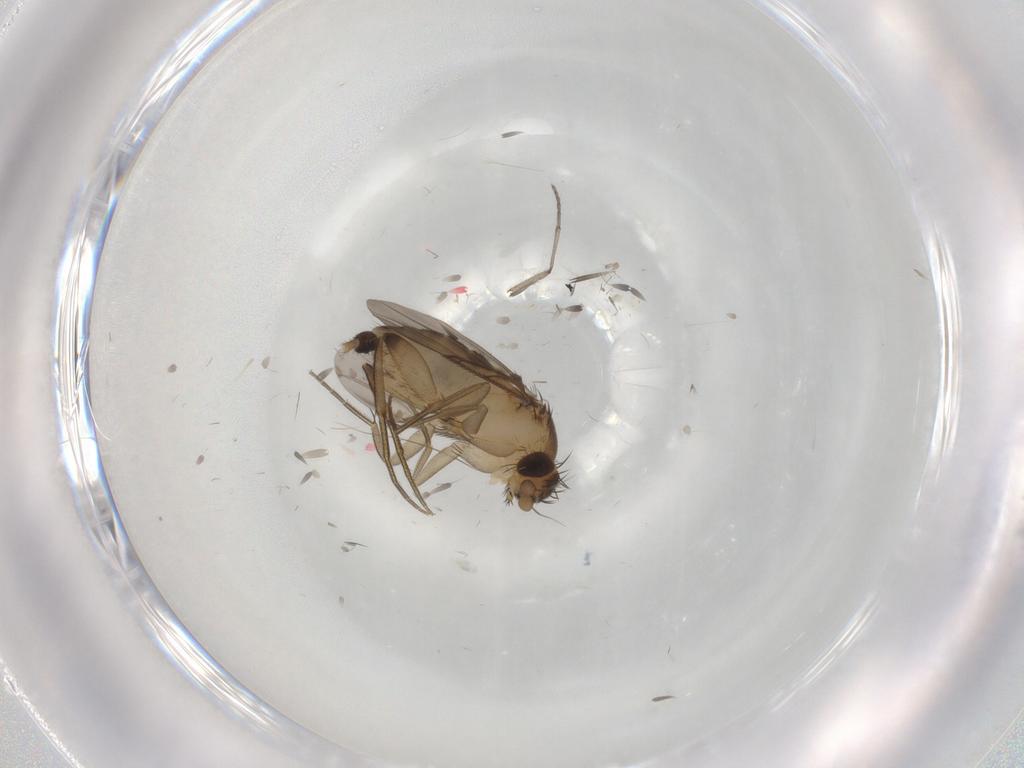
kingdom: Animalia
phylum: Arthropoda
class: Insecta
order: Diptera
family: Phoridae
